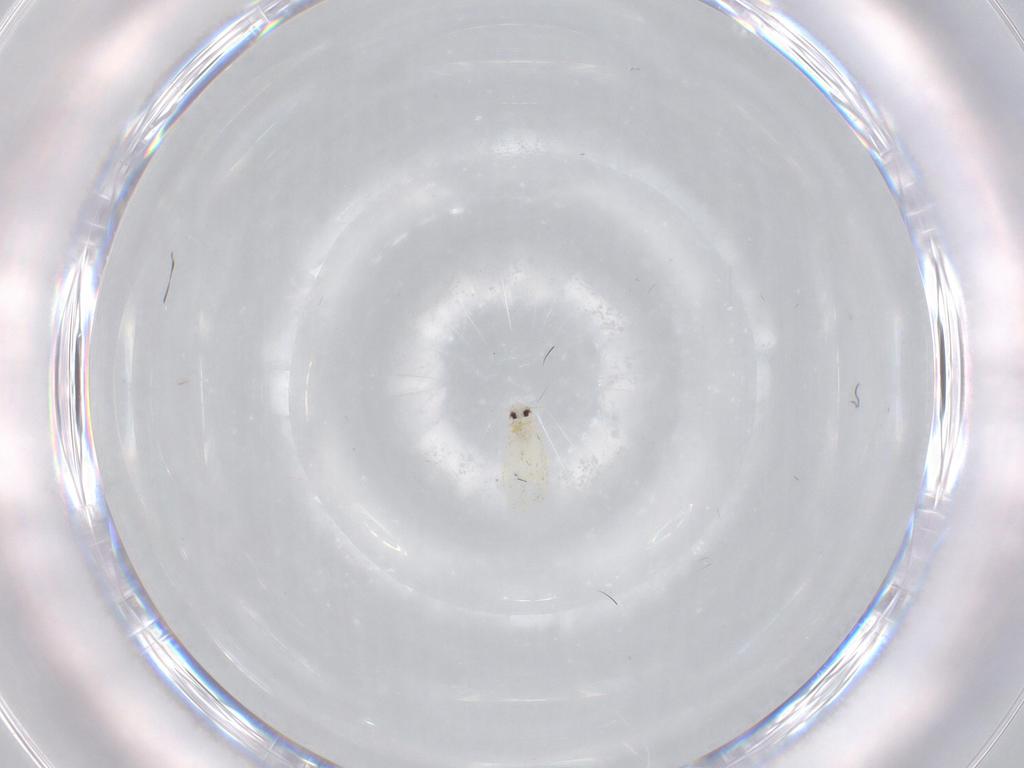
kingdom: Animalia
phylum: Arthropoda
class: Insecta
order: Hemiptera
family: Aleyrodidae
